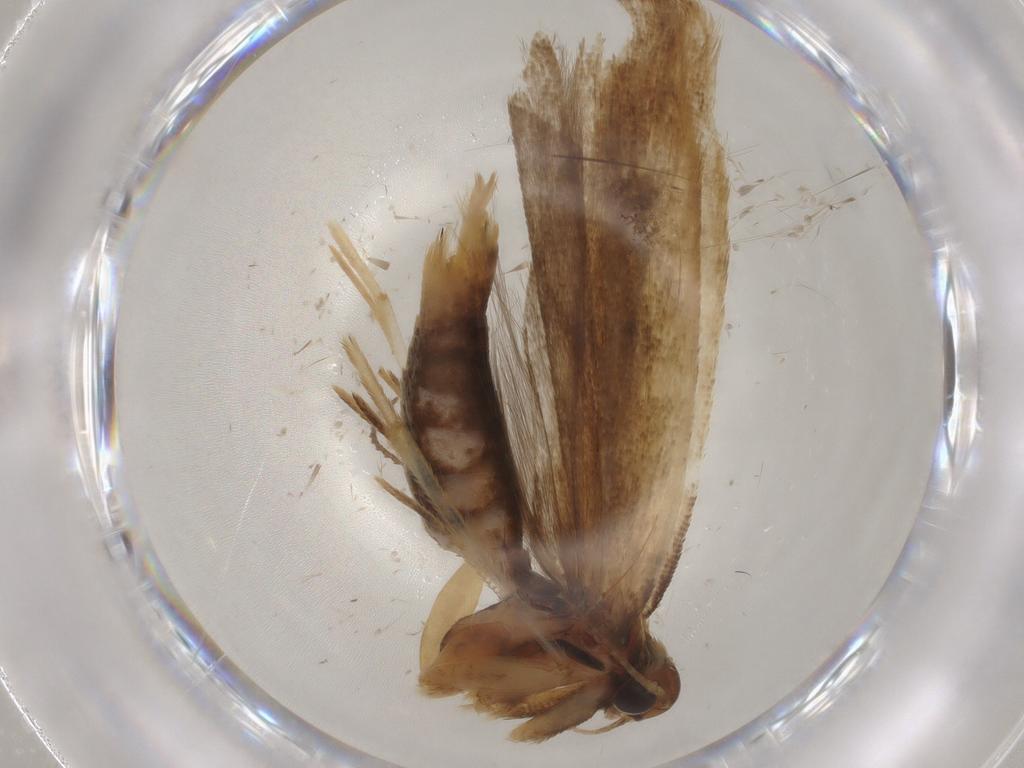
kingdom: Animalia
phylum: Arthropoda
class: Insecta
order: Lepidoptera
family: Gelechiidae
